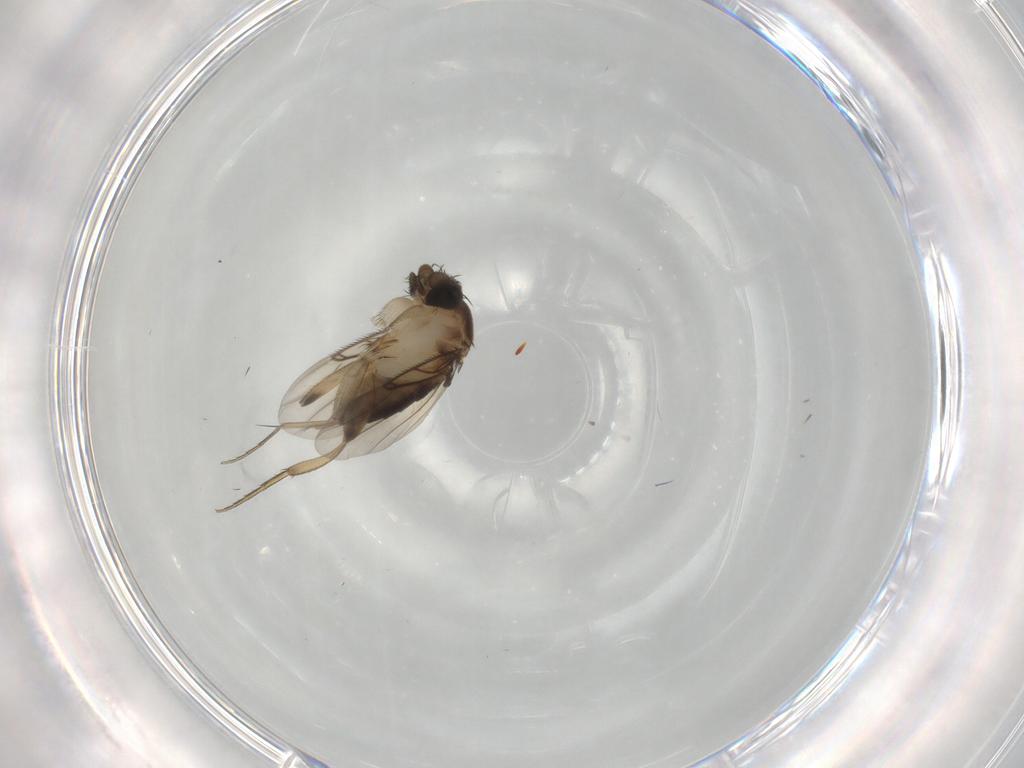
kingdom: Animalia
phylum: Arthropoda
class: Insecta
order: Diptera
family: Phoridae
